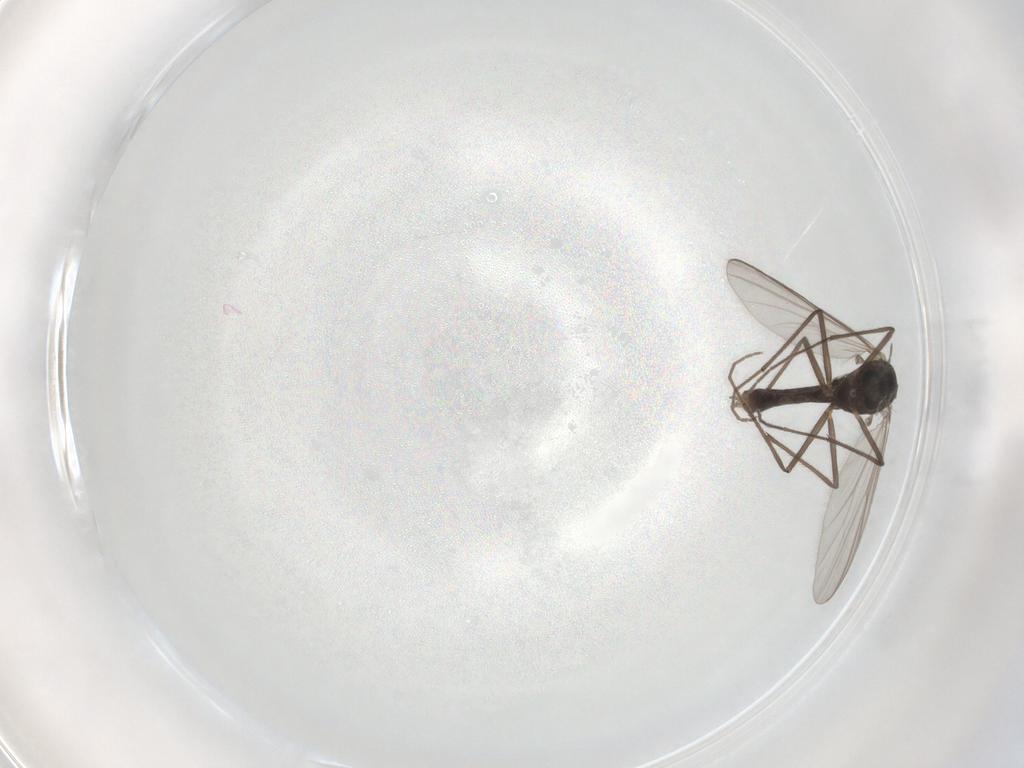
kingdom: Animalia
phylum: Arthropoda
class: Insecta
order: Diptera
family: Chironomidae
